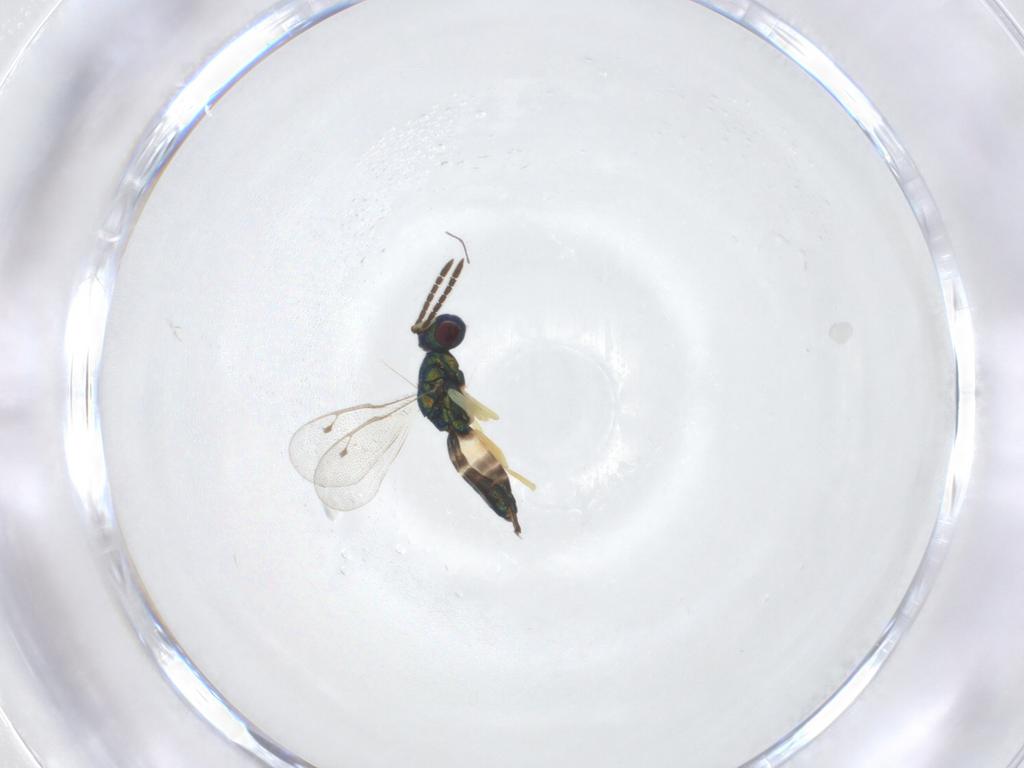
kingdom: Animalia
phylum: Arthropoda
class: Insecta
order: Hymenoptera
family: Pteromalidae
